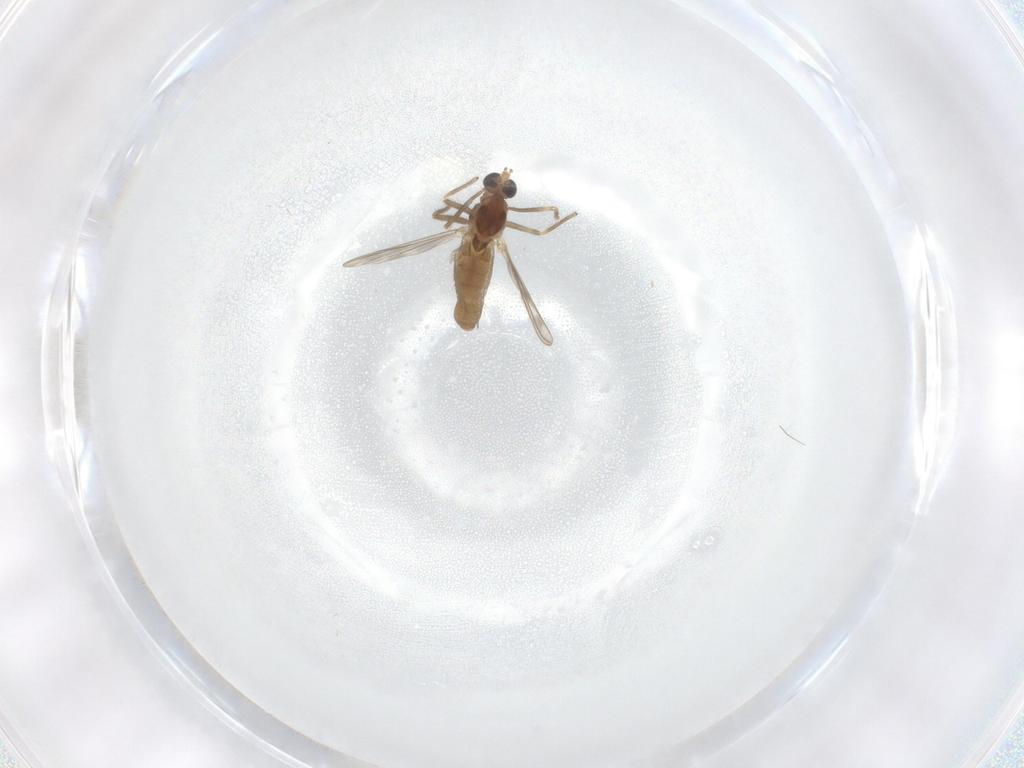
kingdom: Animalia
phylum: Arthropoda
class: Insecta
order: Diptera
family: Chironomidae
